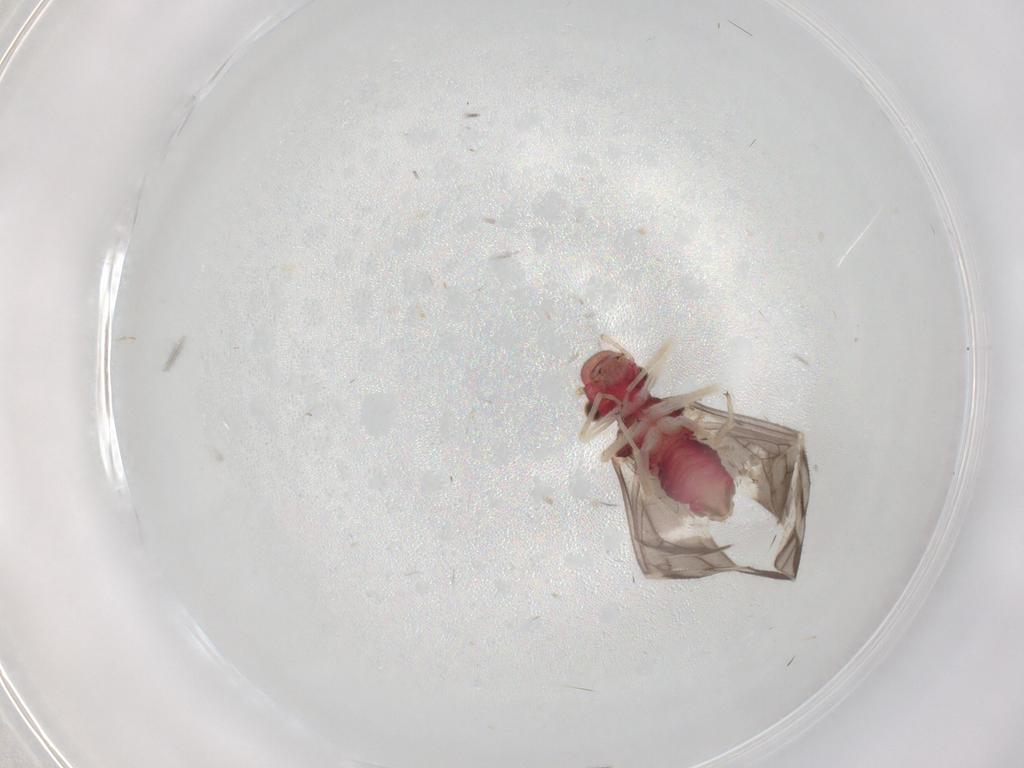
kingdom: Animalia
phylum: Arthropoda
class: Insecta
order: Psocodea
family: Caeciliusidae
